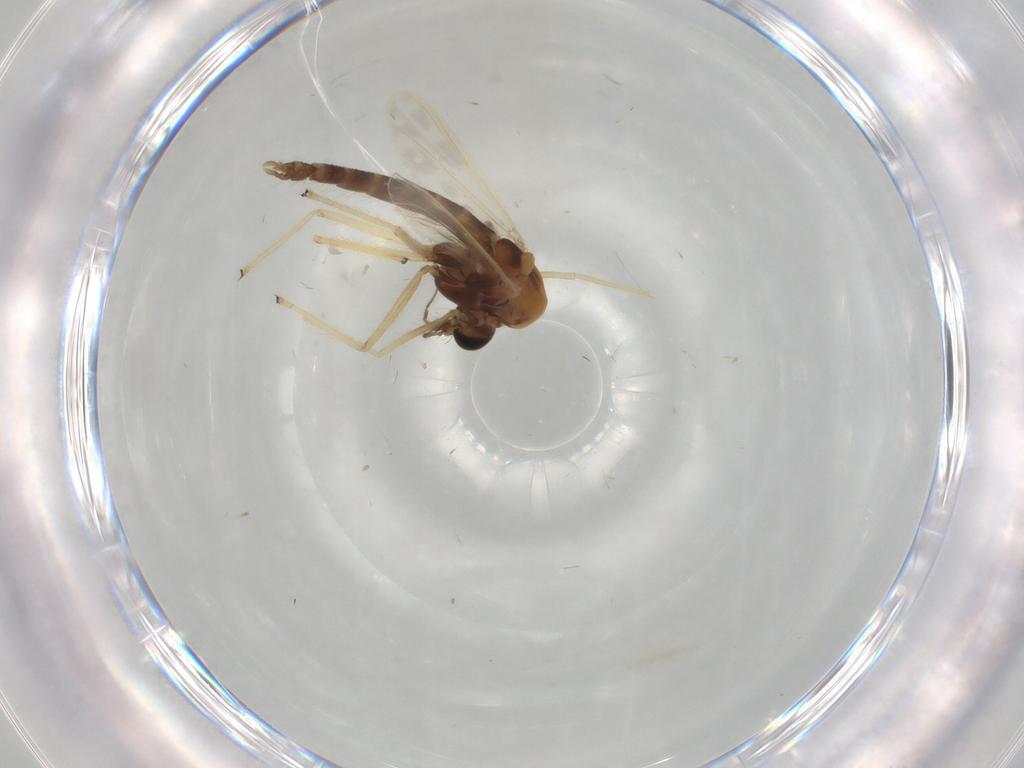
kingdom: Animalia
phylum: Arthropoda
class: Insecta
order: Diptera
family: Chironomidae
